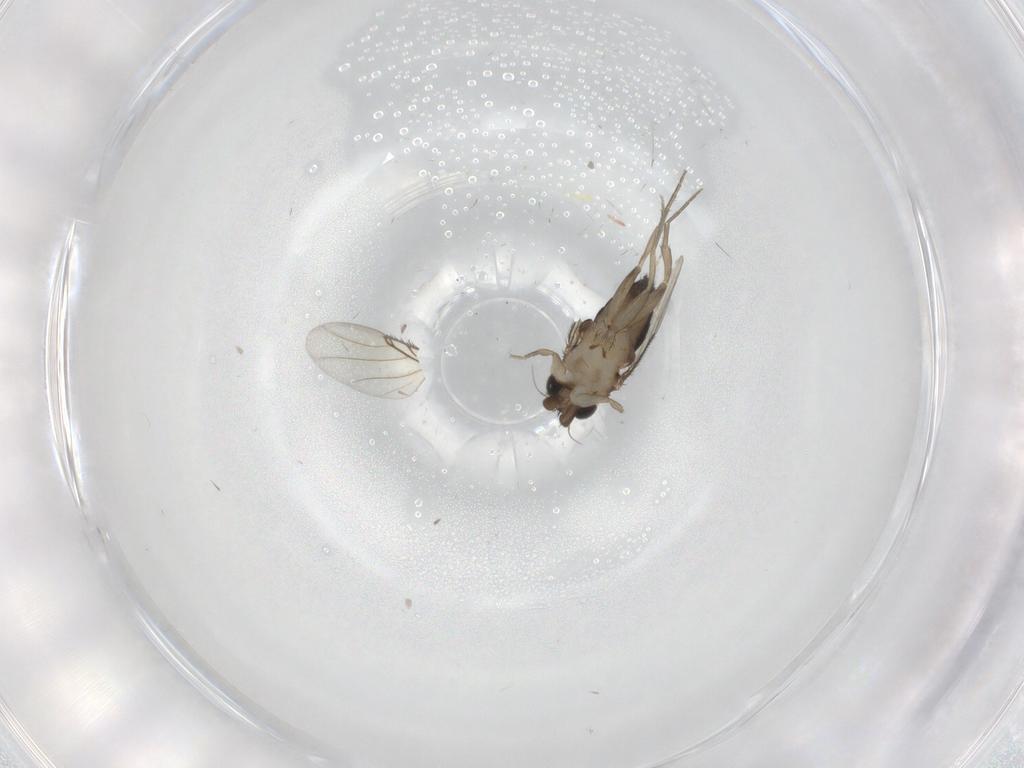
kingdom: Animalia
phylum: Arthropoda
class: Insecta
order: Diptera
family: Phoridae
